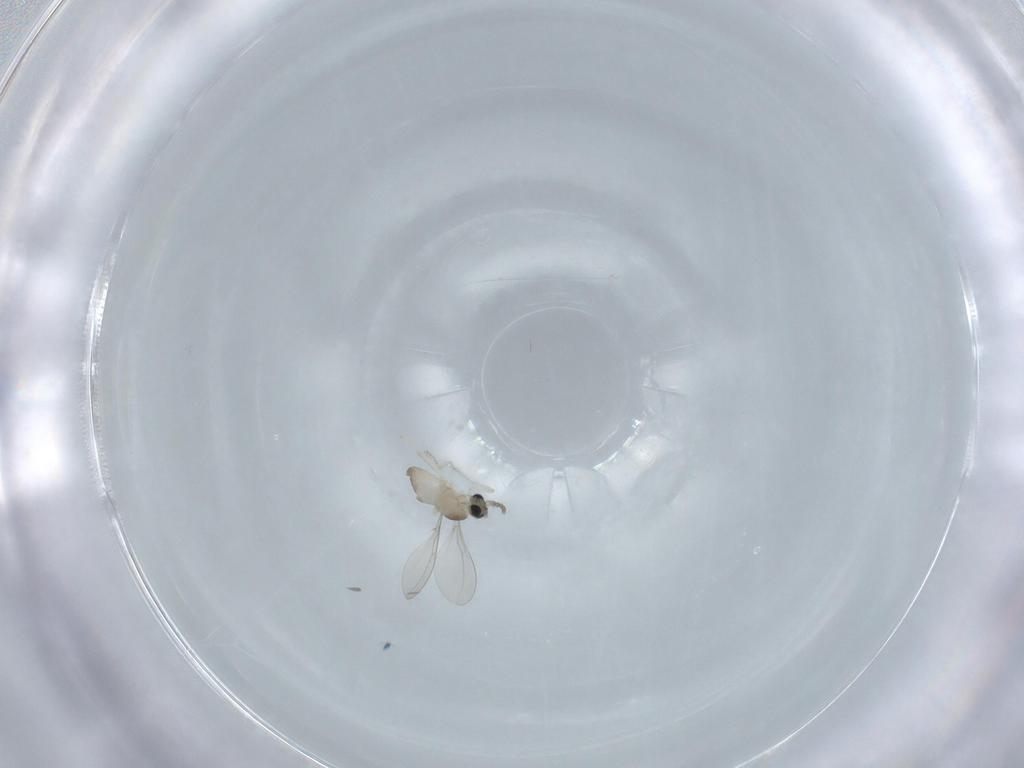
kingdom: Animalia
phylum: Arthropoda
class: Insecta
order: Diptera
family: Cecidomyiidae
